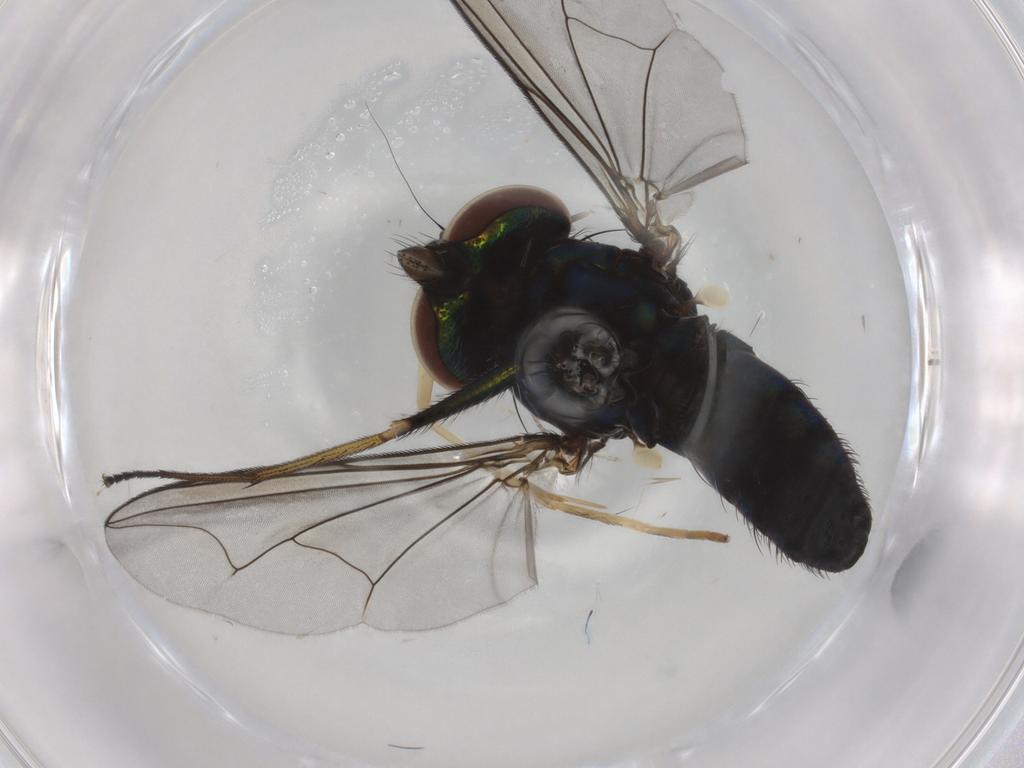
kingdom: Animalia
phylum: Arthropoda
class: Insecta
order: Diptera
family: Dolichopodidae
